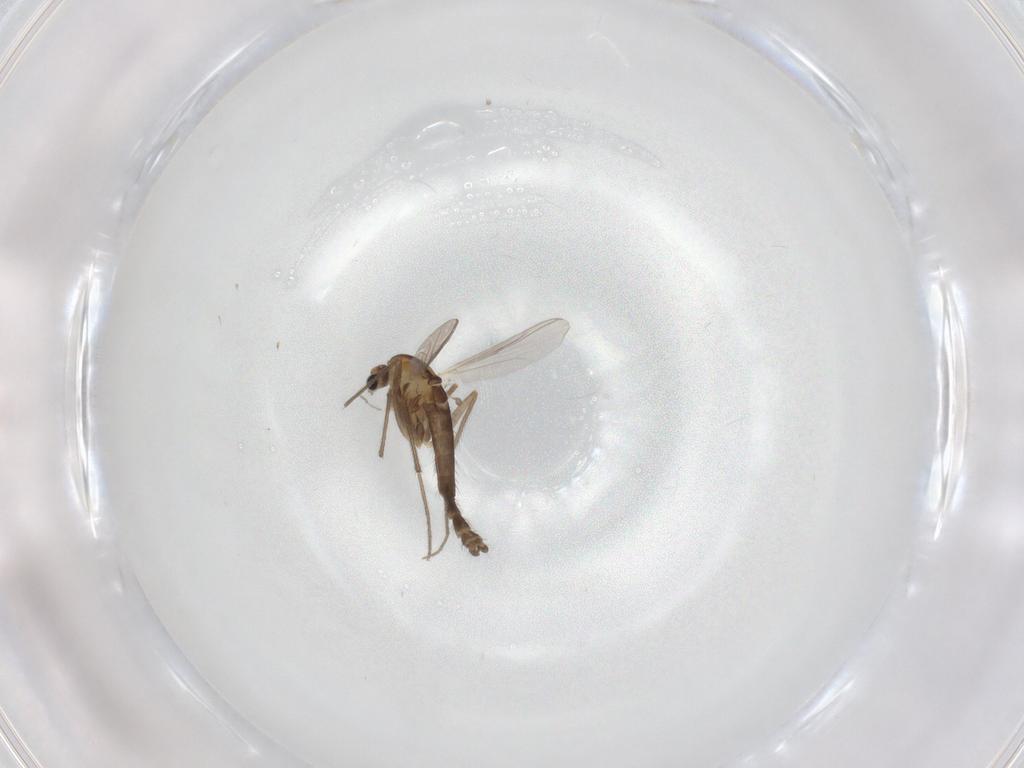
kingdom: Animalia
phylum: Arthropoda
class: Insecta
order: Diptera
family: Chironomidae
